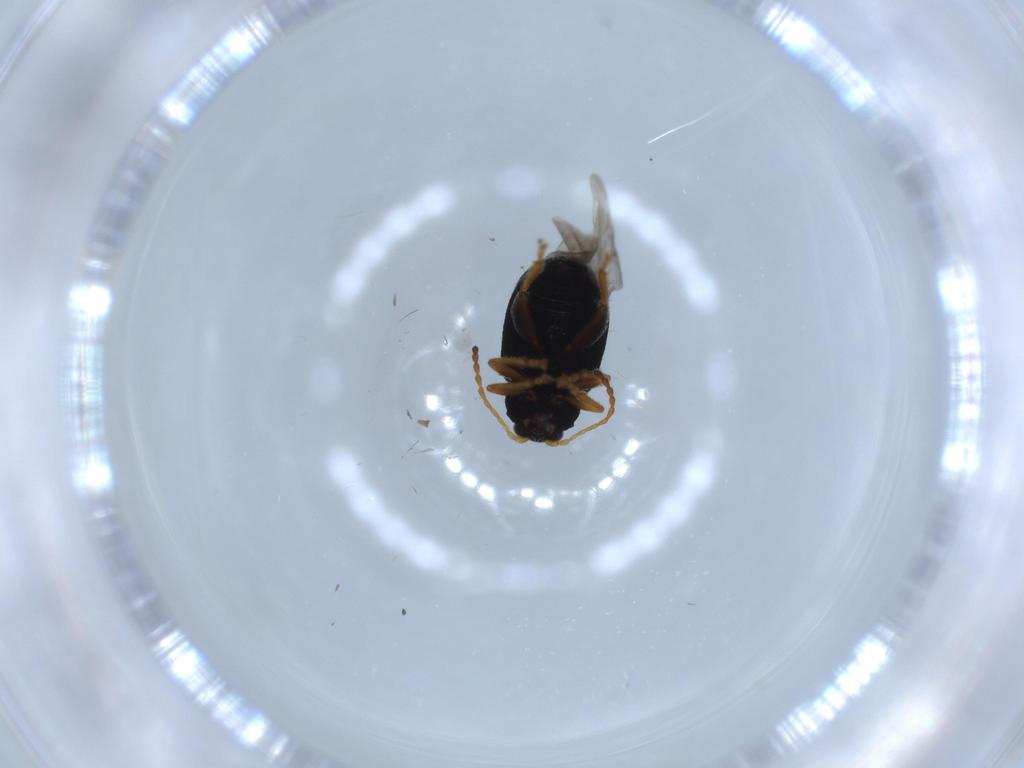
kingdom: Animalia
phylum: Arthropoda
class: Insecta
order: Coleoptera
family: Chrysomelidae
